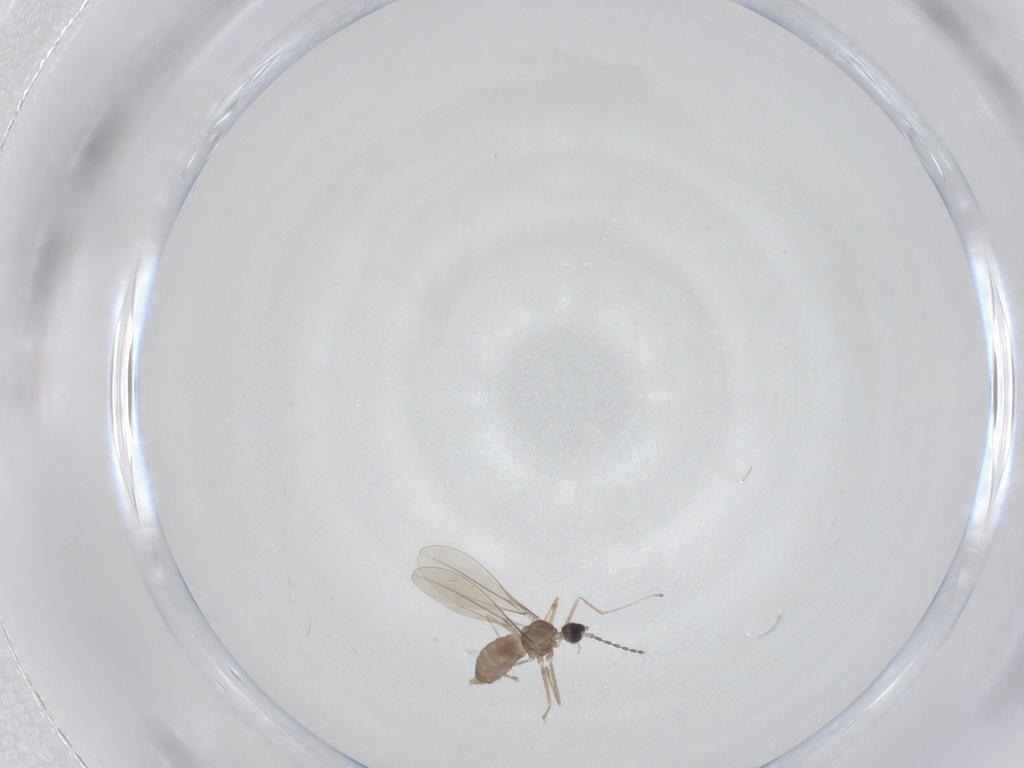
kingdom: Animalia
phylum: Arthropoda
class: Insecta
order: Diptera
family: Cecidomyiidae
